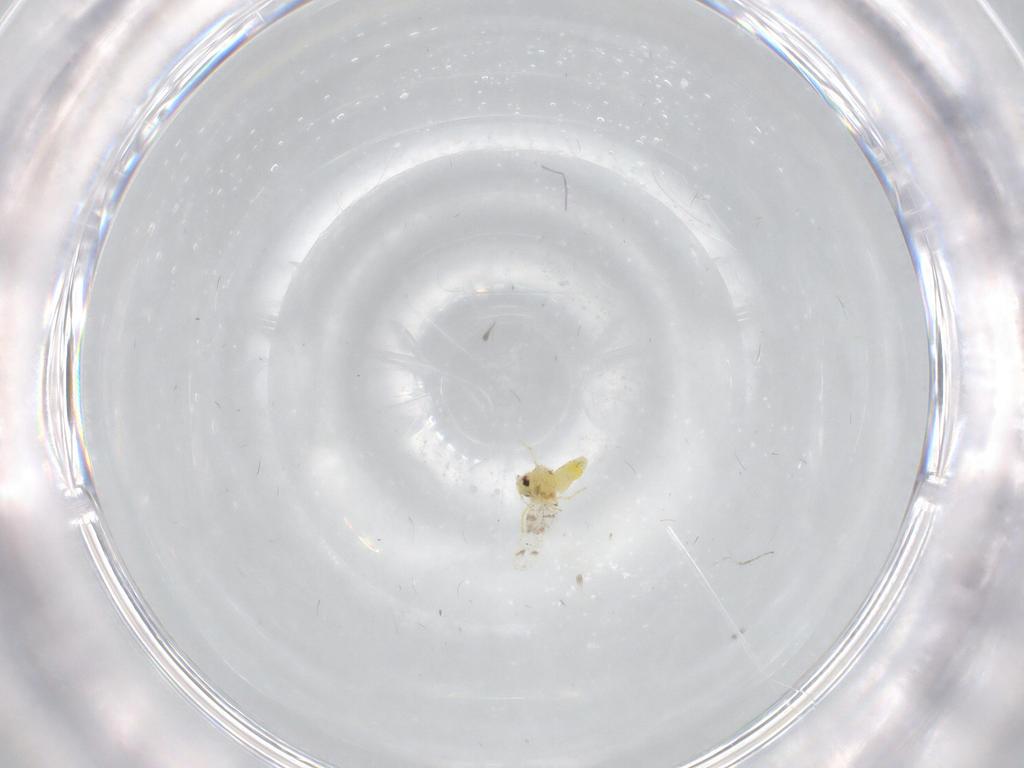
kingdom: Animalia
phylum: Arthropoda
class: Insecta
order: Hemiptera
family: Aleyrodidae
